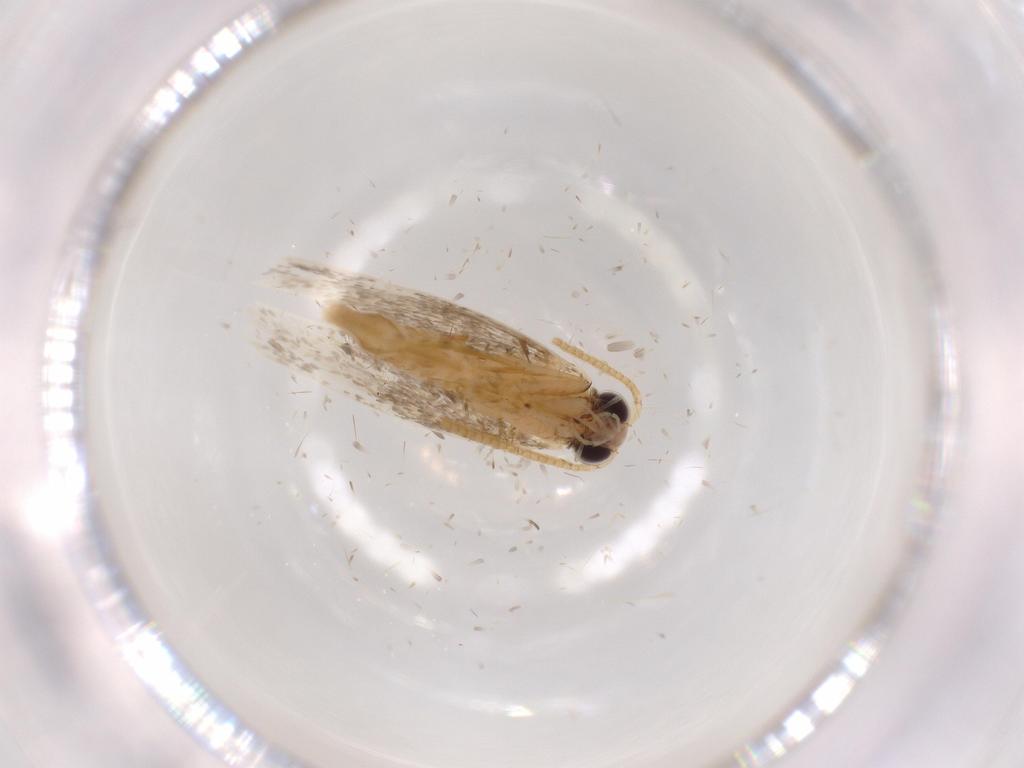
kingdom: Animalia
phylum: Arthropoda
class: Insecta
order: Lepidoptera
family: Tineidae
